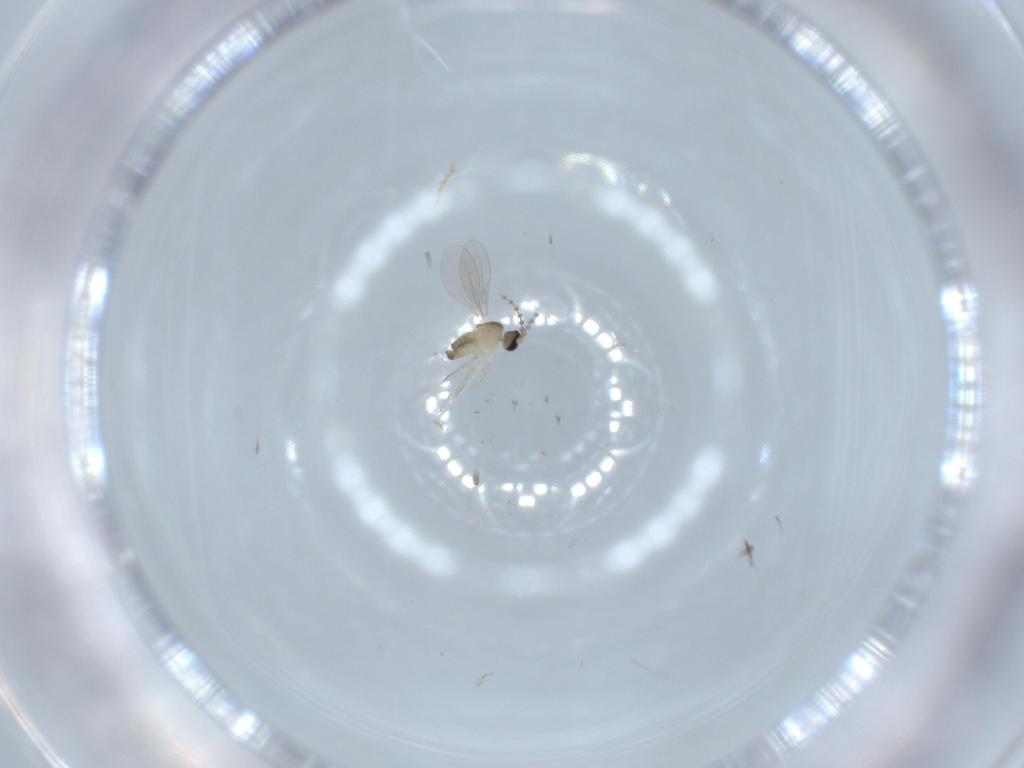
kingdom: Animalia
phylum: Arthropoda
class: Insecta
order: Diptera
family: Cecidomyiidae
